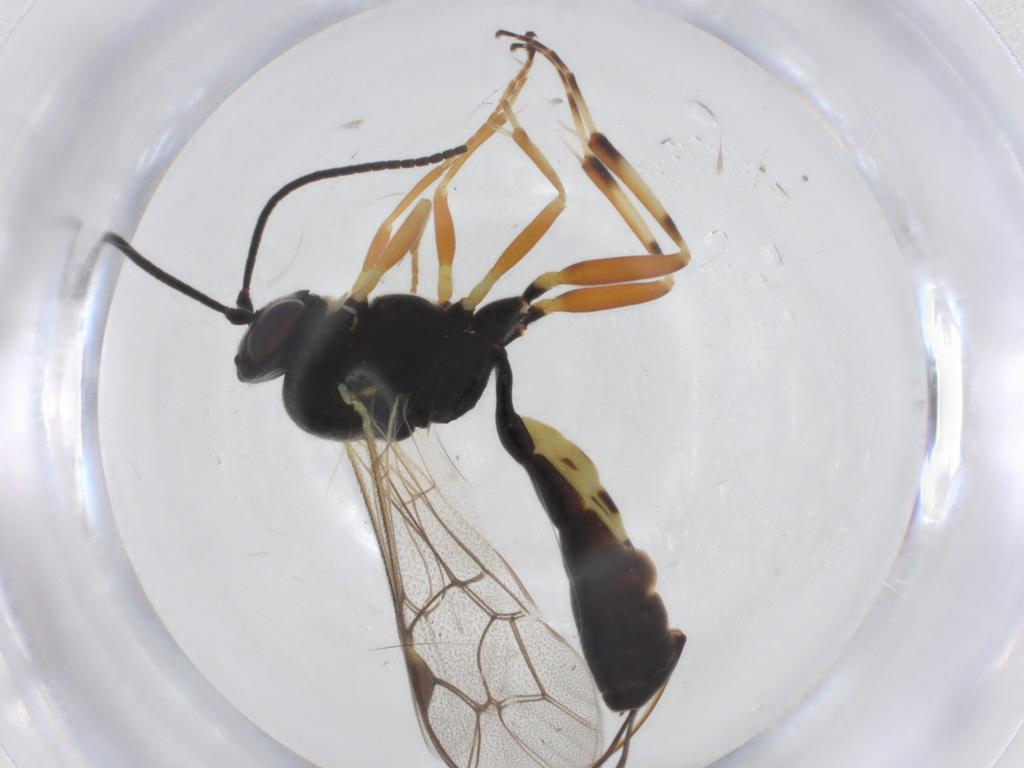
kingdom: Animalia
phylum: Arthropoda
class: Insecta
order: Hymenoptera
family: Ichneumonidae
